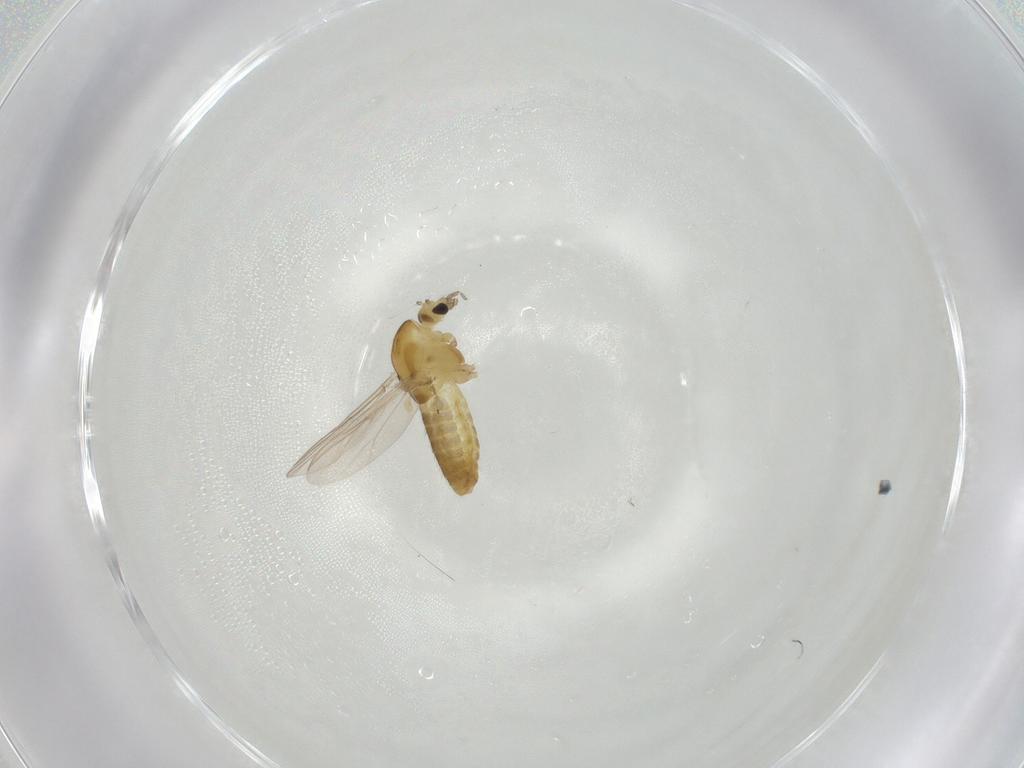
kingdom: Animalia
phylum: Arthropoda
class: Insecta
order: Diptera
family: Chironomidae
